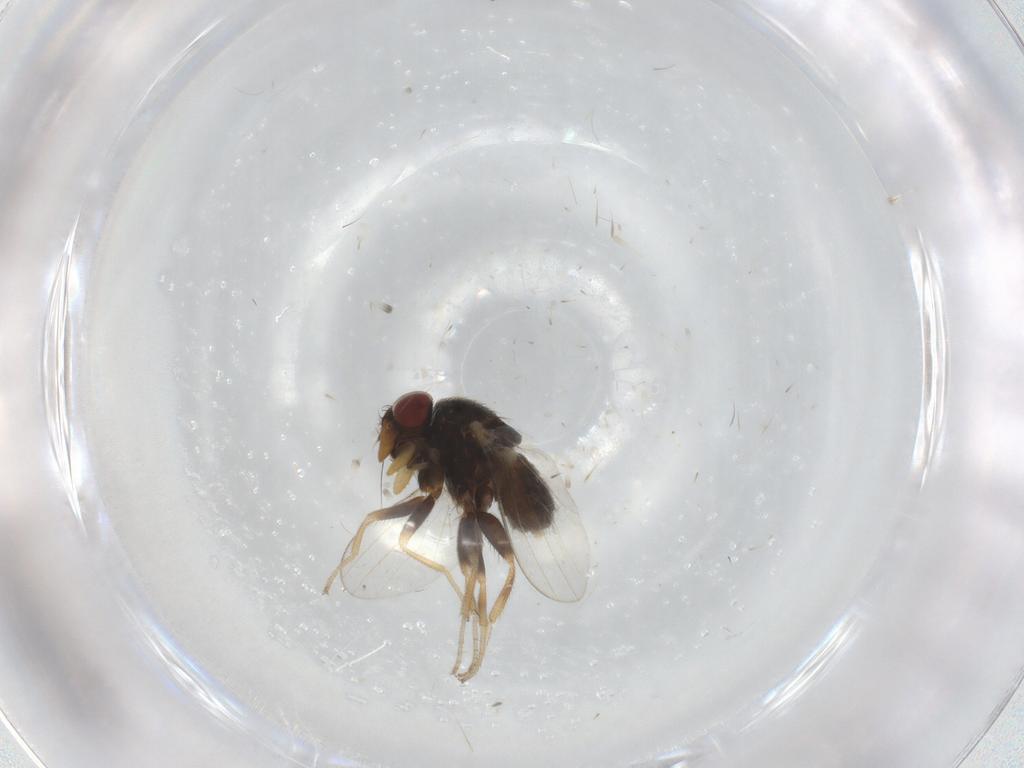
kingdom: Animalia
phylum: Arthropoda
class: Insecta
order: Diptera
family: Milichiidae
